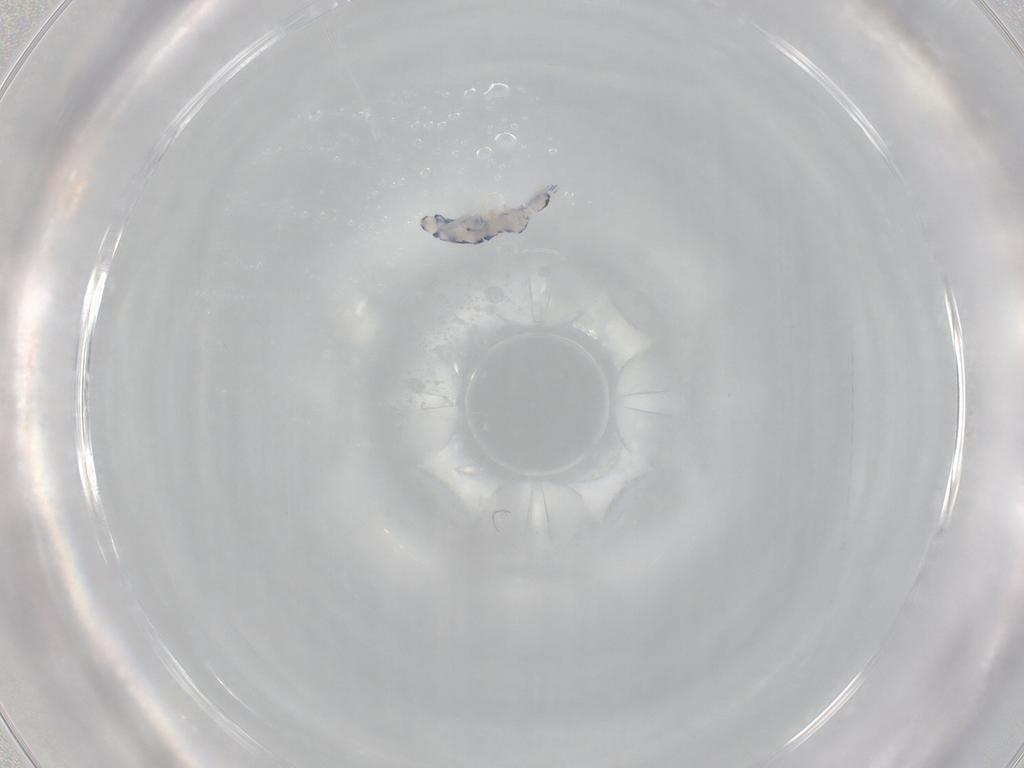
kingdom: Animalia
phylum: Arthropoda
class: Collembola
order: Entomobryomorpha
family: Entomobryidae
